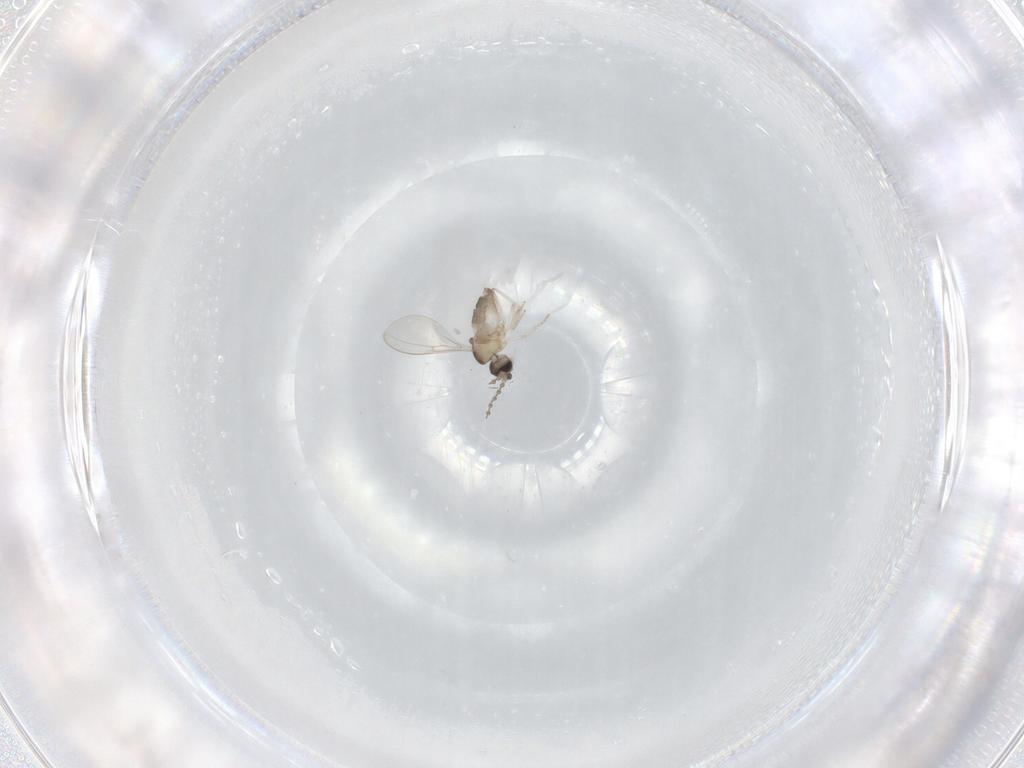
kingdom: Animalia
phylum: Arthropoda
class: Insecta
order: Diptera
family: Cecidomyiidae
